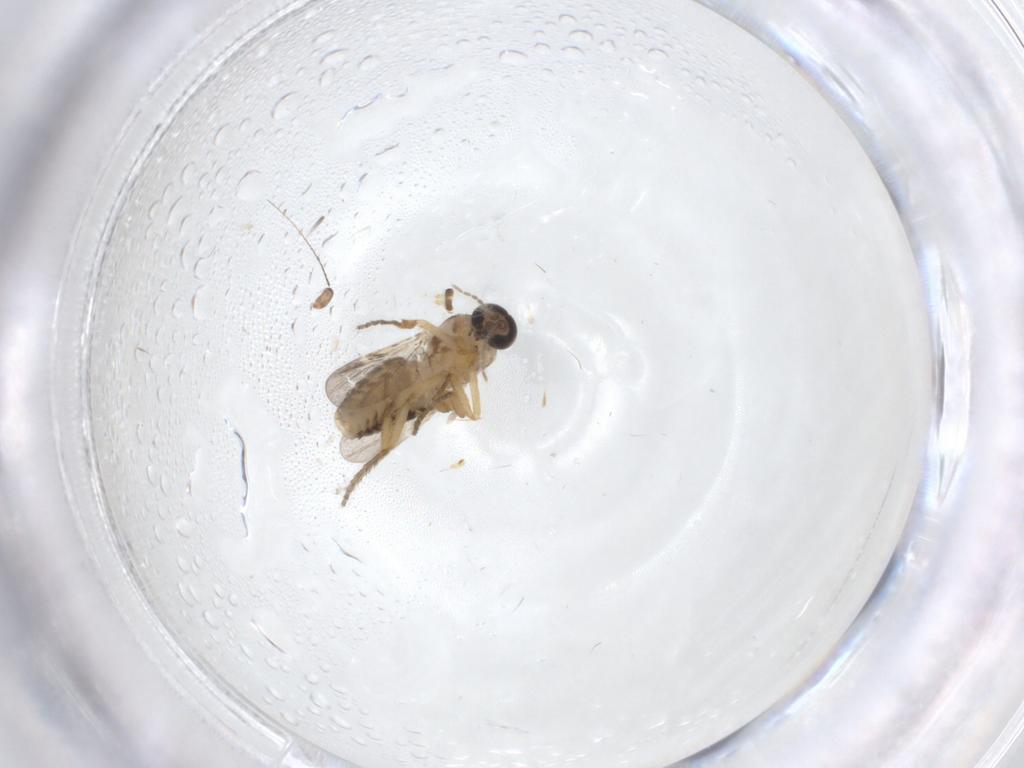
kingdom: Animalia
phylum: Arthropoda
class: Insecta
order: Diptera
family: Ceratopogonidae
